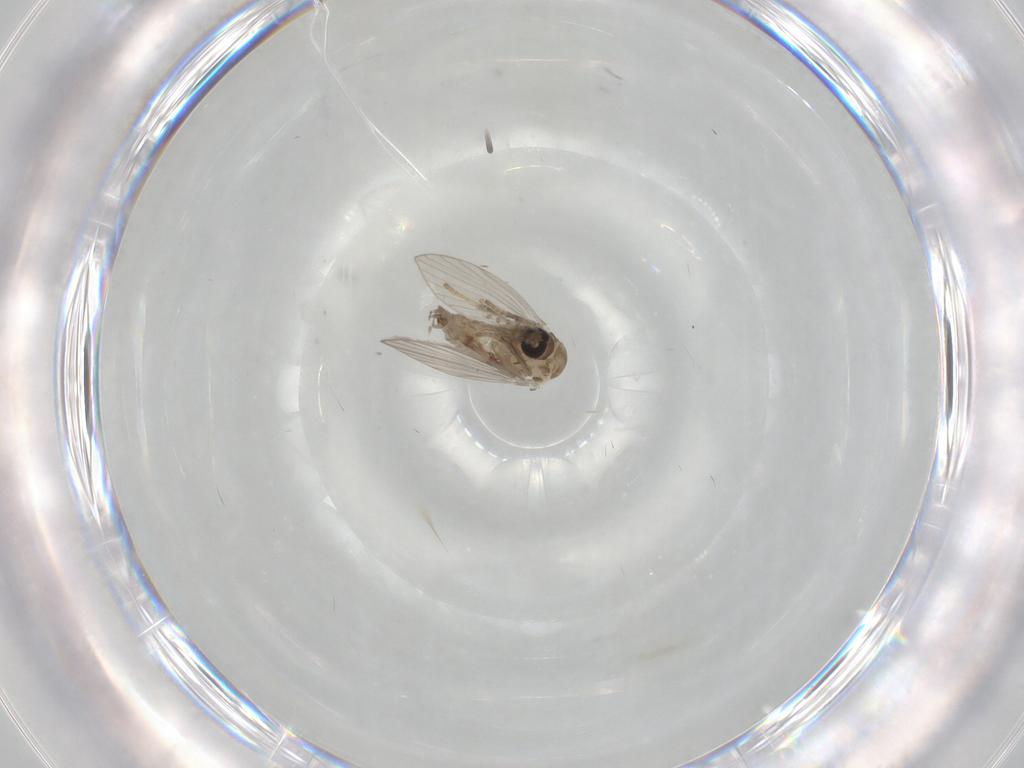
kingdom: Animalia
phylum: Arthropoda
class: Insecta
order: Diptera
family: Psychodidae
